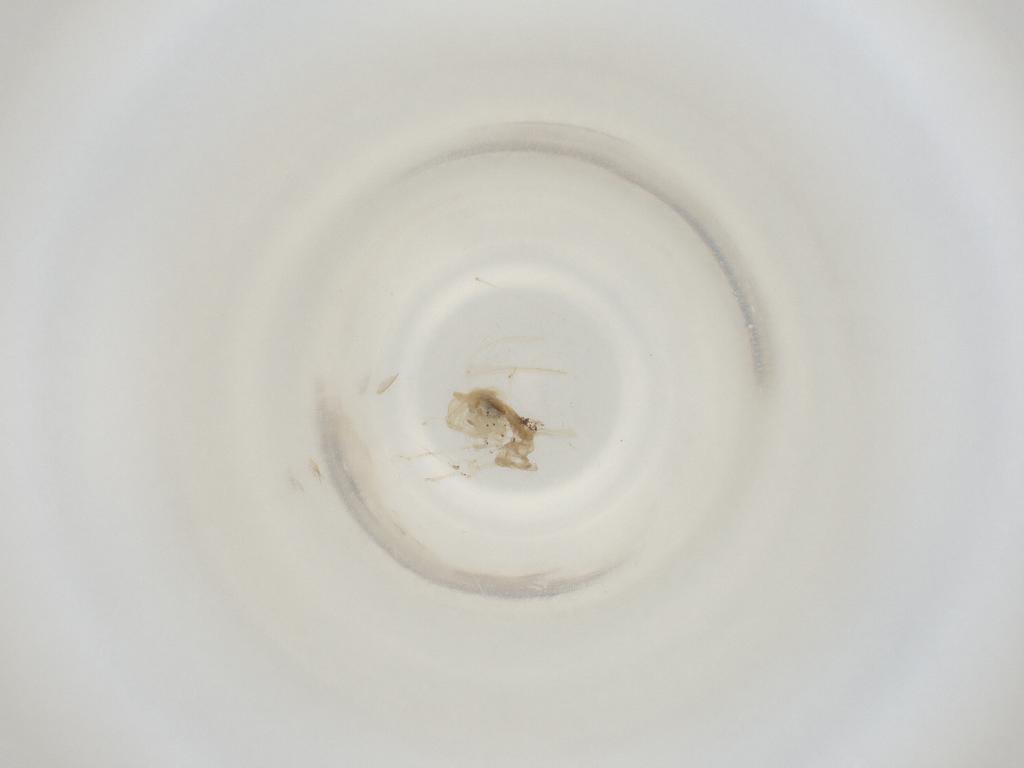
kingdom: Animalia
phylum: Arthropoda
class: Insecta
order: Diptera
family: Cecidomyiidae
